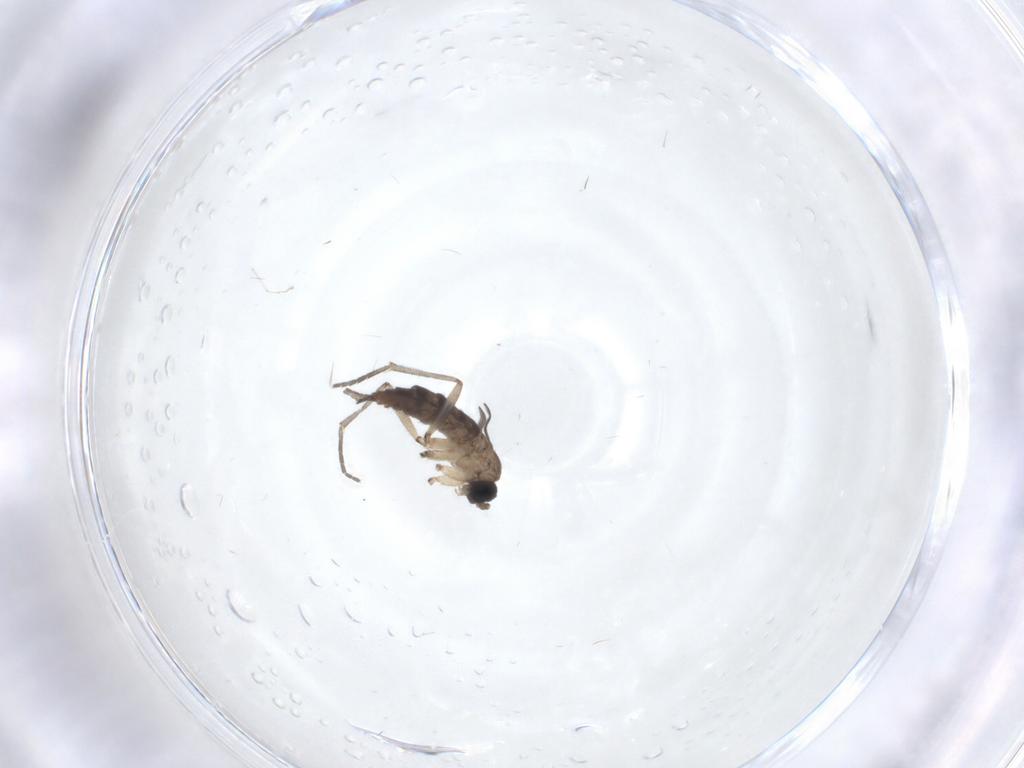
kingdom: Animalia
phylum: Arthropoda
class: Insecta
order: Diptera
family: Sciaridae
